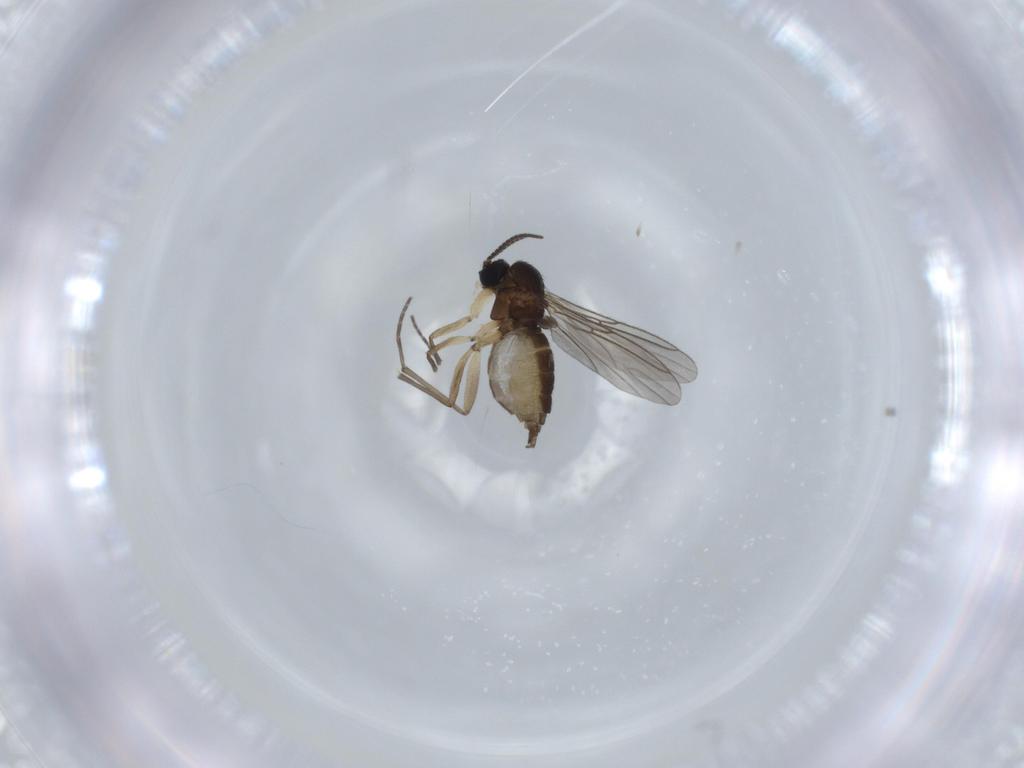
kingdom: Animalia
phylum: Arthropoda
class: Insecta
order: Diptera
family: Sciaridae
